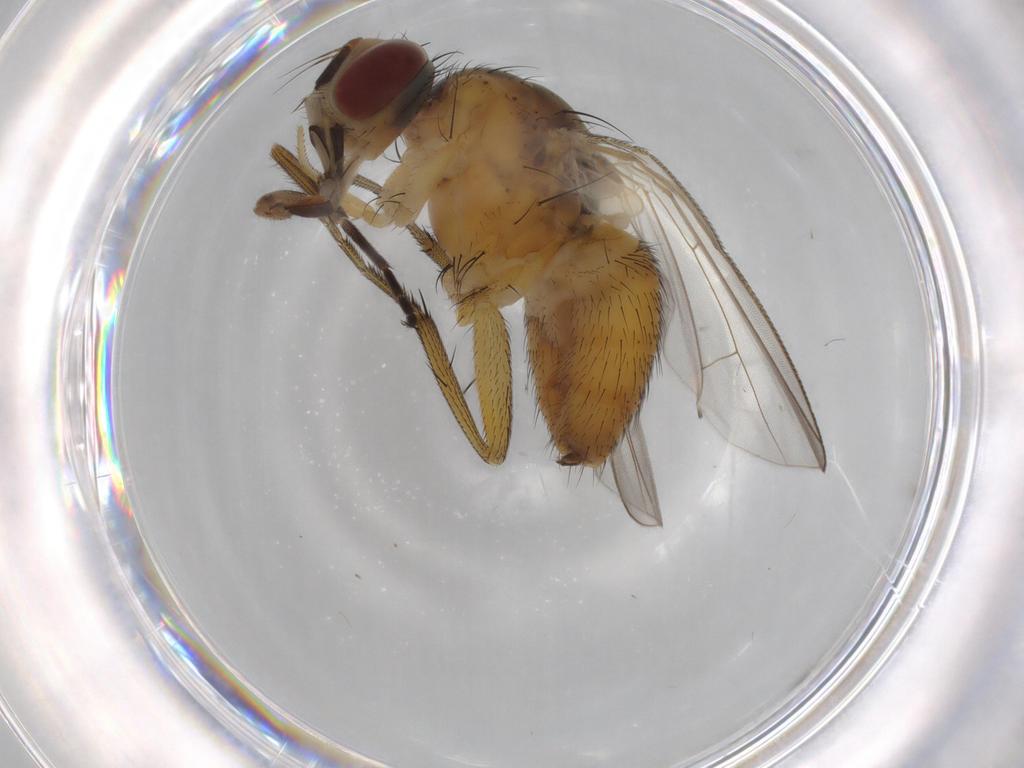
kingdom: Animalia
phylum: Arthropoda
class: Insecta
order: Diptera
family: Muscidae
